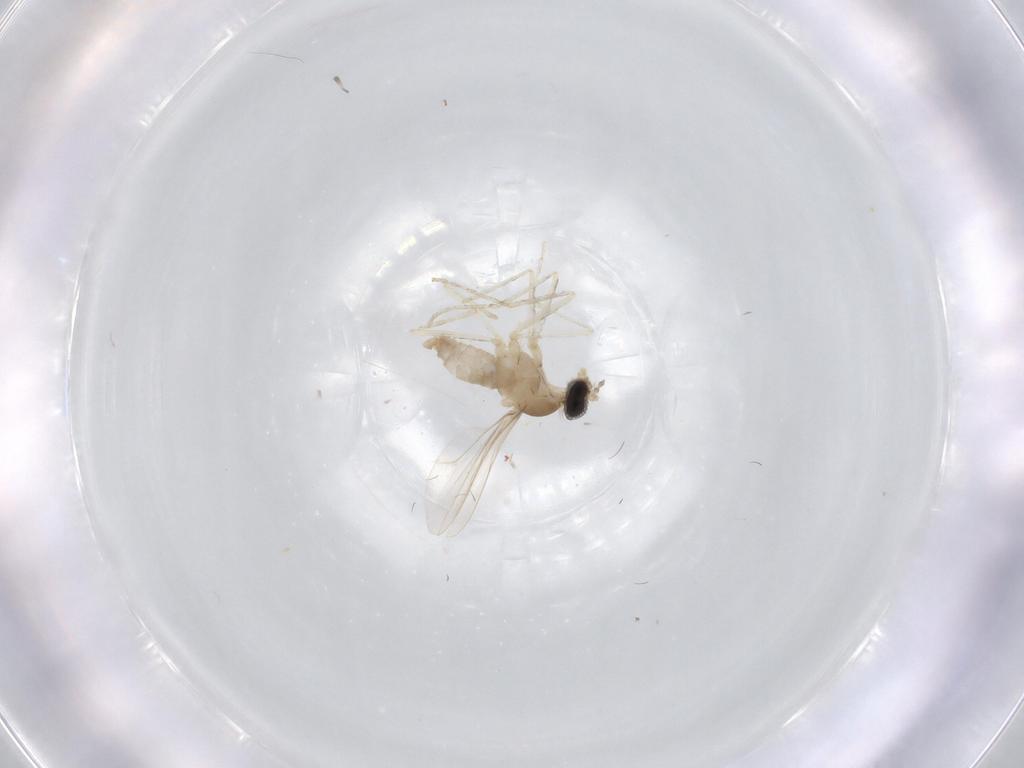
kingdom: Animalia
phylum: Arthropoda
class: Insecta
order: Diptera
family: Cecidomyiidae
